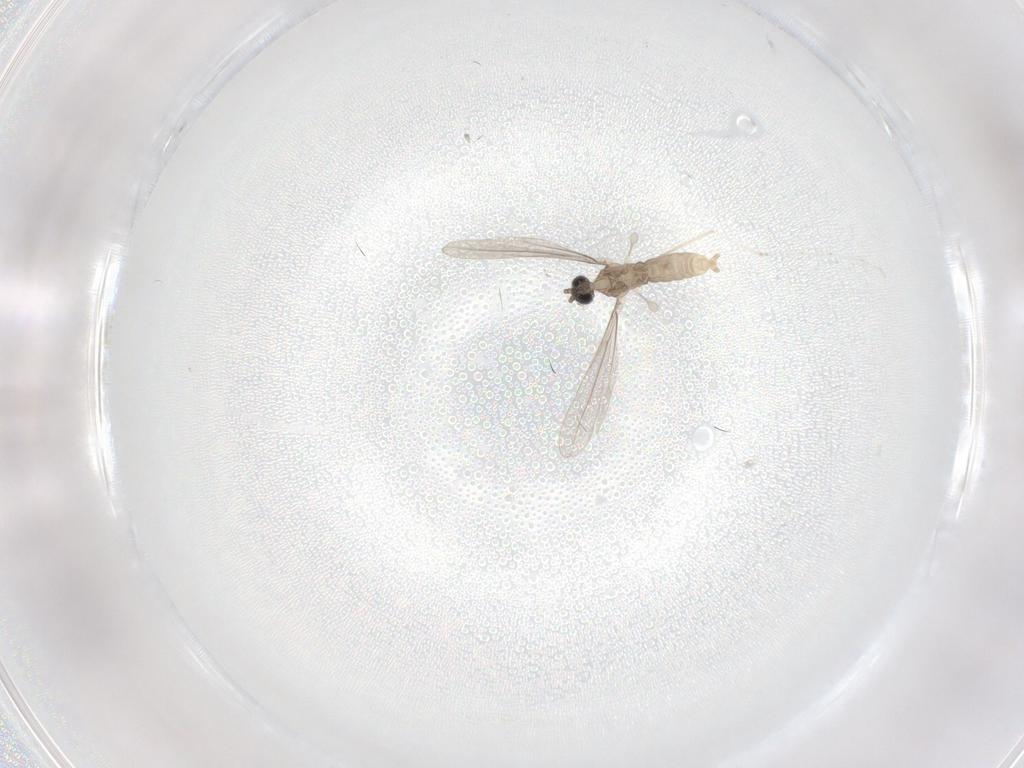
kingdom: Animalia
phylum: Arthropoda
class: Insecta
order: Diptera
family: Cecidomyiidae
